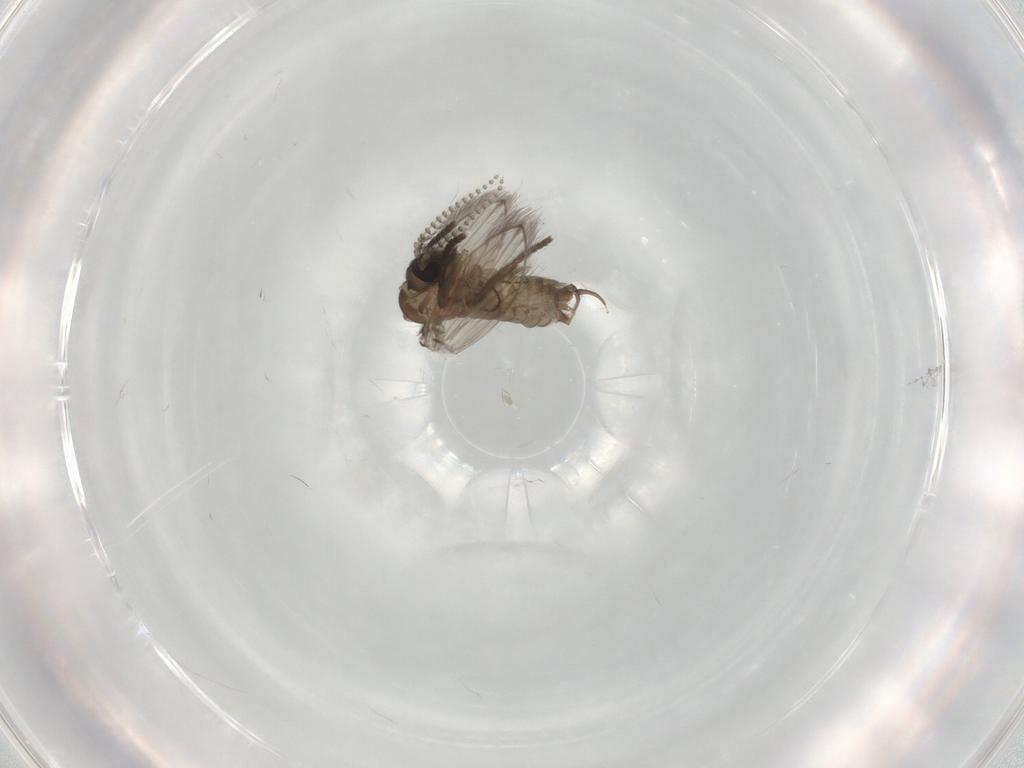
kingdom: Animalia
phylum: Arthropoda
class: Insecta
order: Diptera
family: Psychodidae
